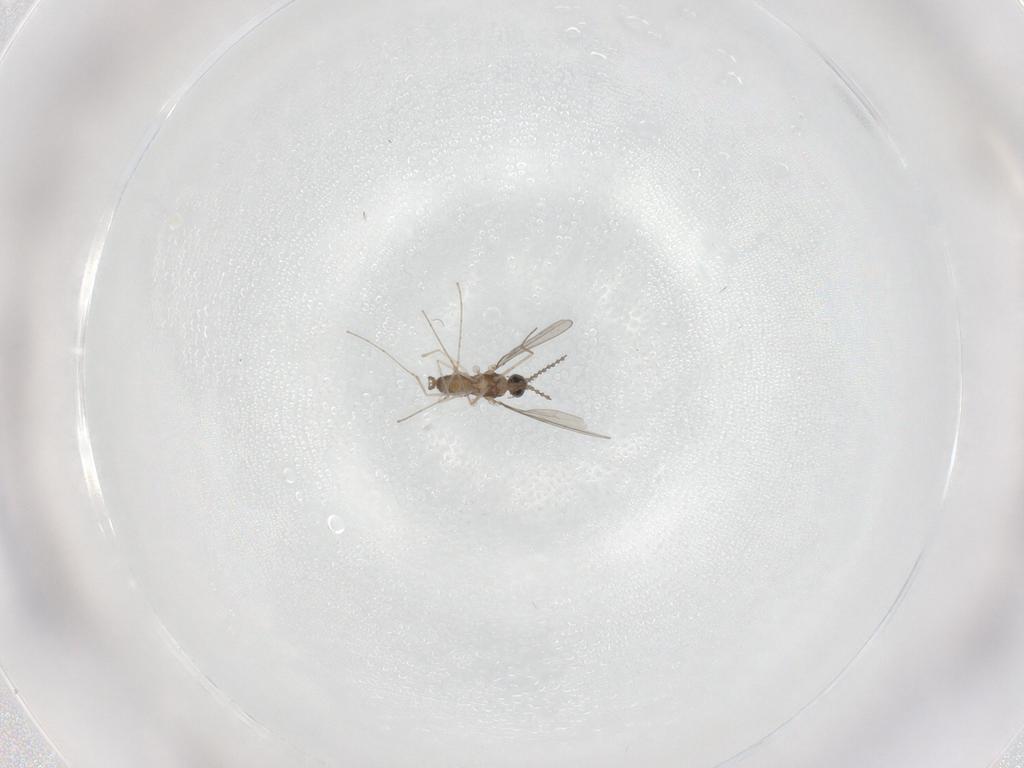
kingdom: Animalia
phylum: Arthropoda
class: Insecta
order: Diptera
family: Cecidomyiidae
